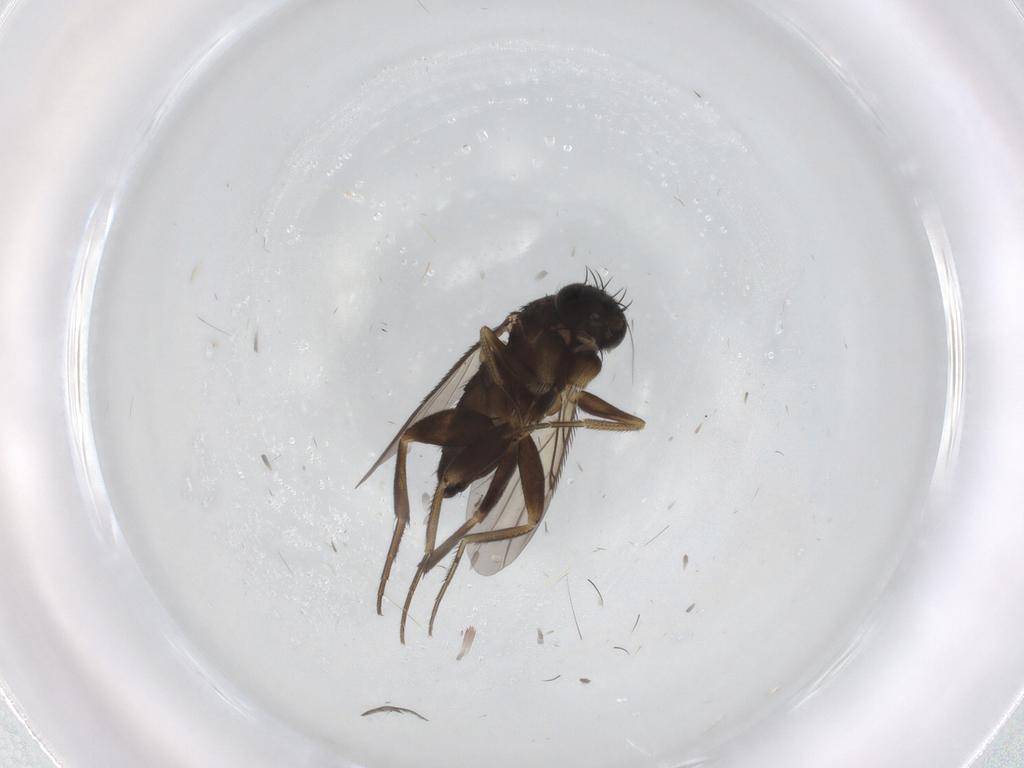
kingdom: Animalia
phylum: Arthropoda
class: Insecta
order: Diptera
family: Phoridae
